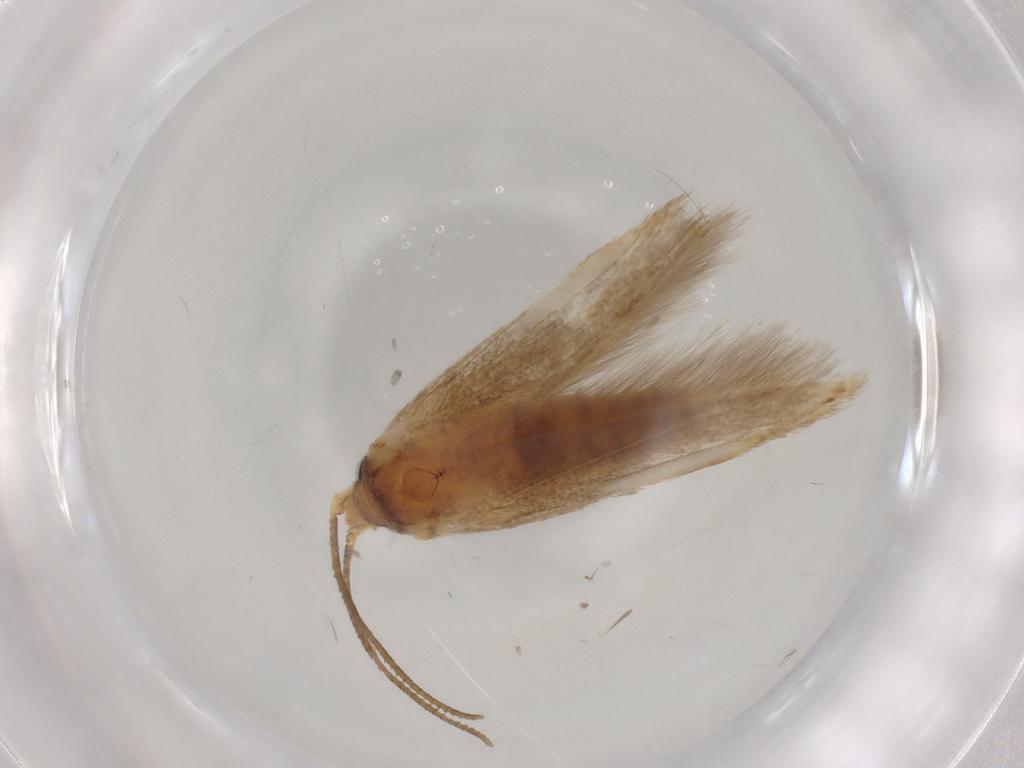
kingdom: Animalia
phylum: Arthropoda
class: Insecta
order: Lepidoptera
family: Blastobasidae
